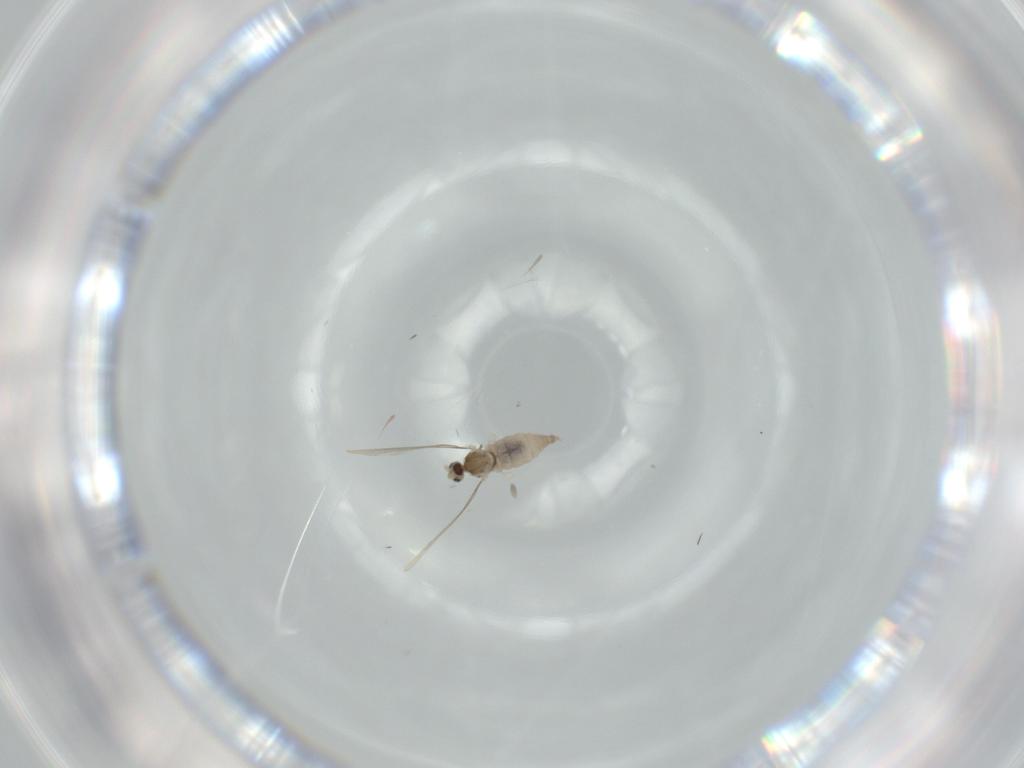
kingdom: Animalia
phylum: Arthropoda
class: Insecta
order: Diptera
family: Cecidomyiidae
